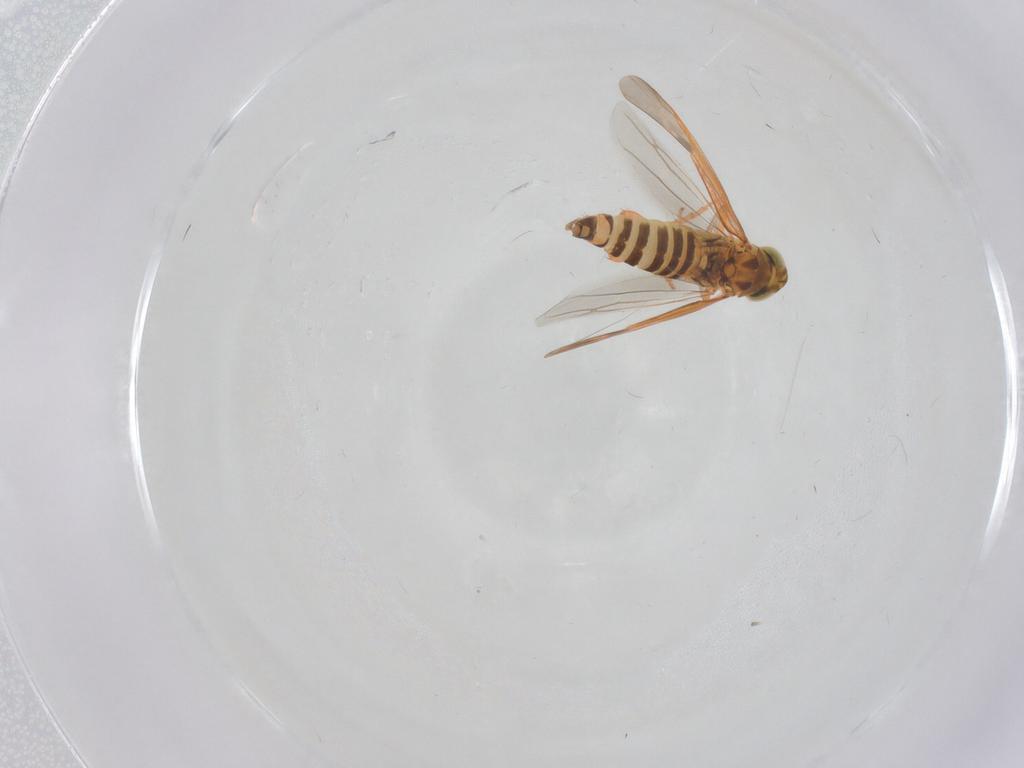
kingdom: Animalia
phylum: Arthropoda
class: Insecta
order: Hemiptera
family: Cicadellidae
